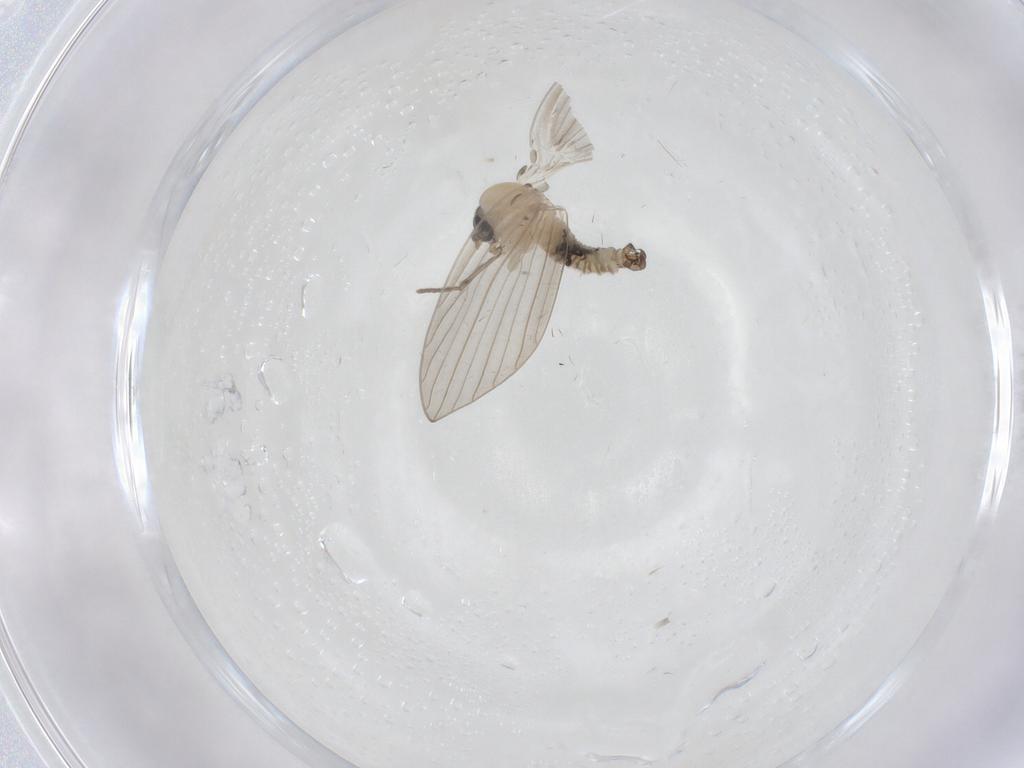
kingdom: Animalia
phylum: Arthropoda
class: Insecta
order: Diptera
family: Psychodidae
